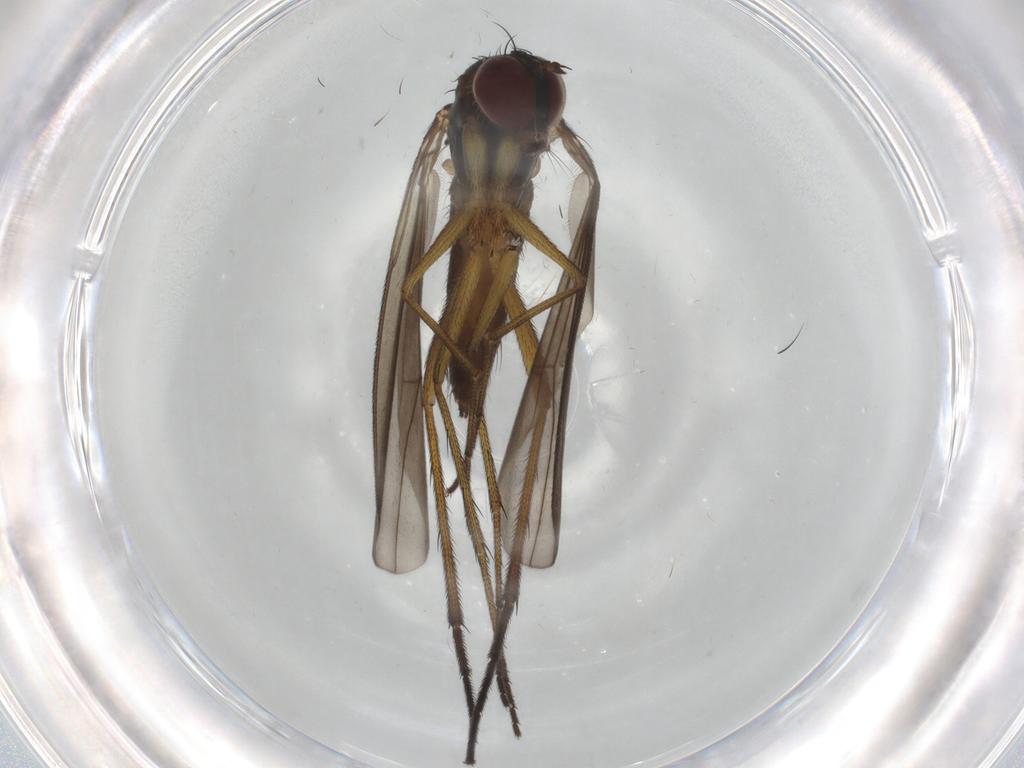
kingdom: Animalia
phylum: Arthropoda
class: Insecta
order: Diptera
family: Dolichopodidae
